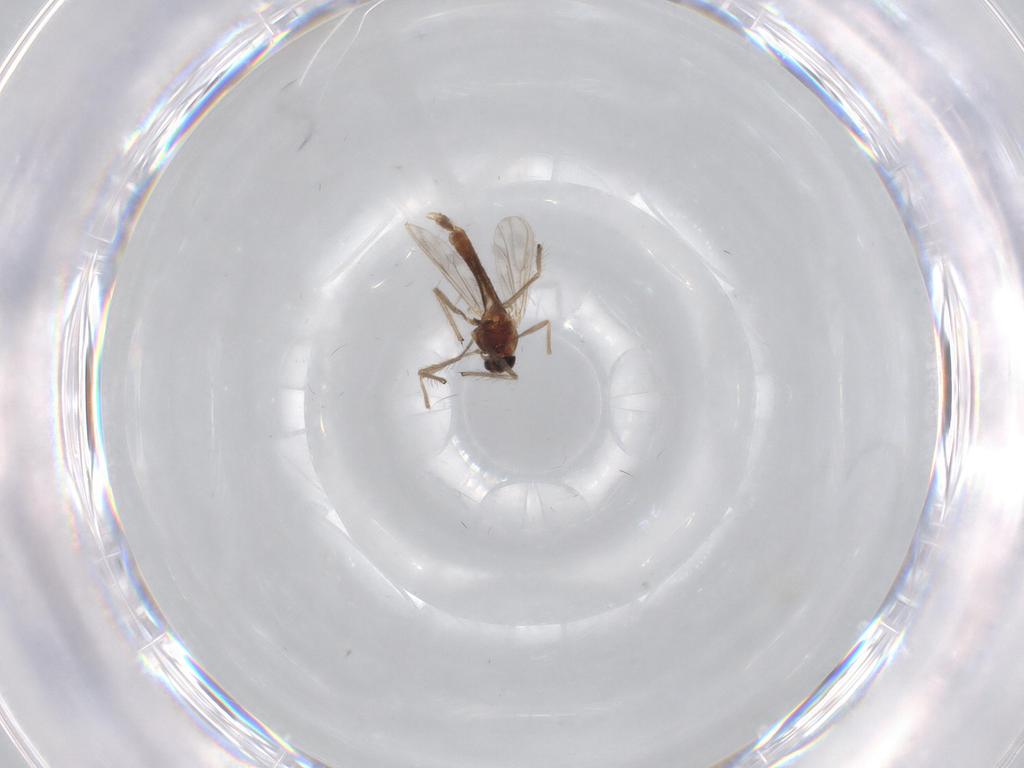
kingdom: Animalia
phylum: Arthropoda
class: Insecta
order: Diptera
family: Chironomidae
